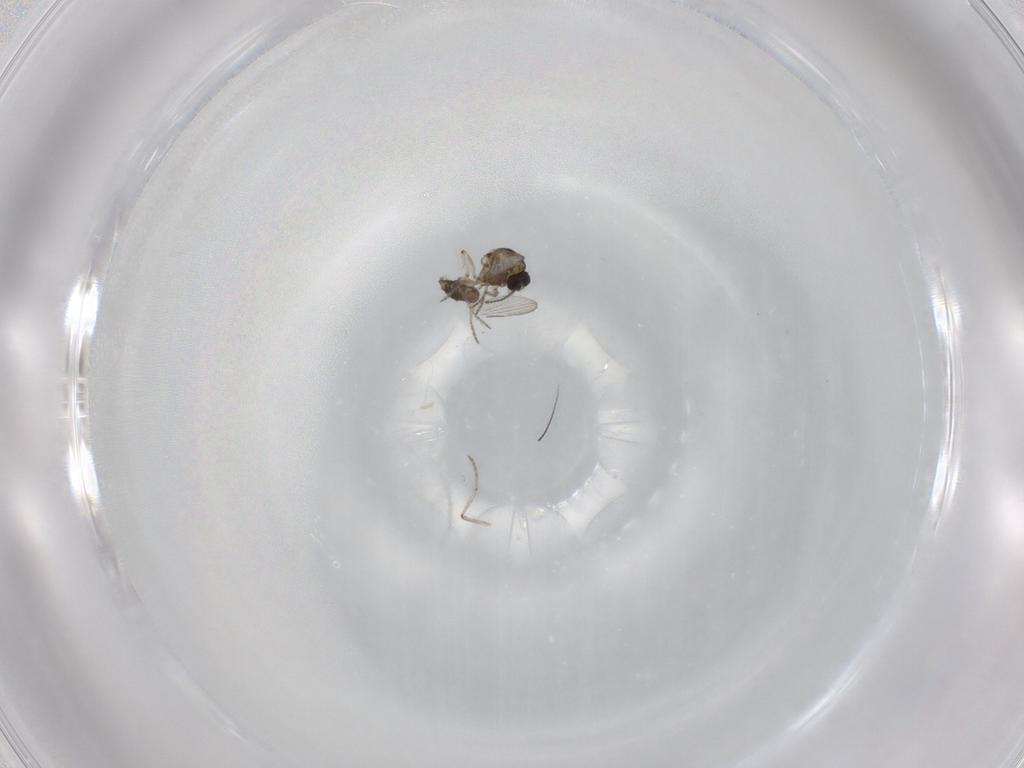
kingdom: Animalia
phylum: Arthropoda
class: Insecta
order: Diptera
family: Ceratopogonidae
